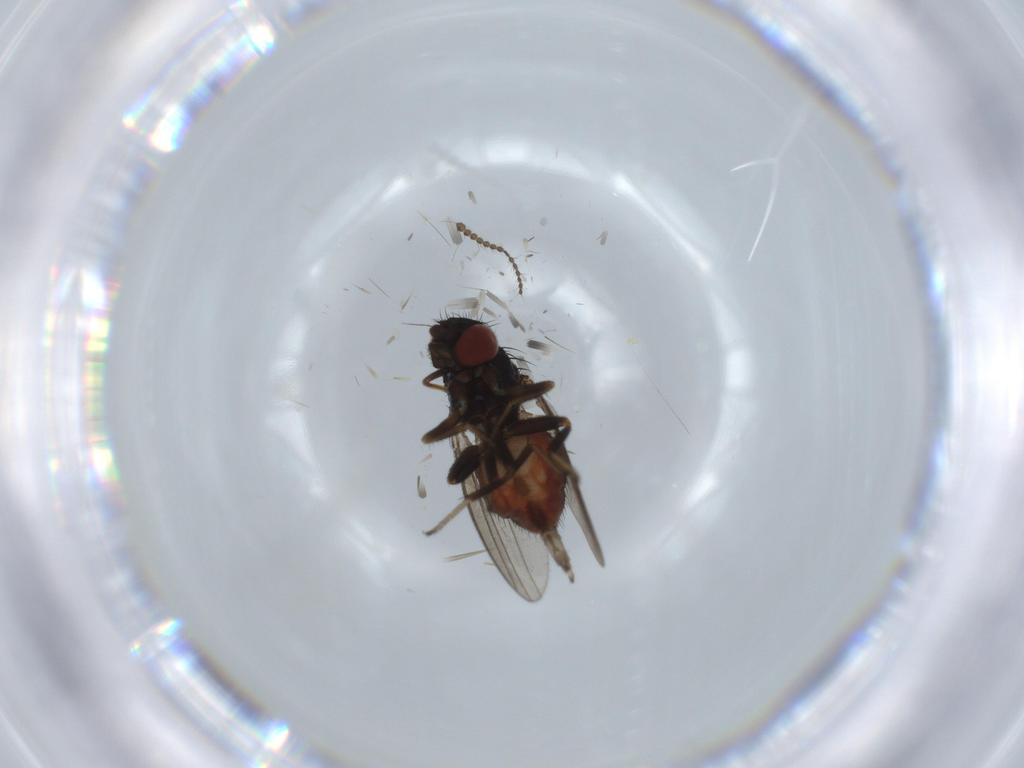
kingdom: Animalia
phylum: Arthropoda
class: Insecta
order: Diptera
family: Milichiidae
